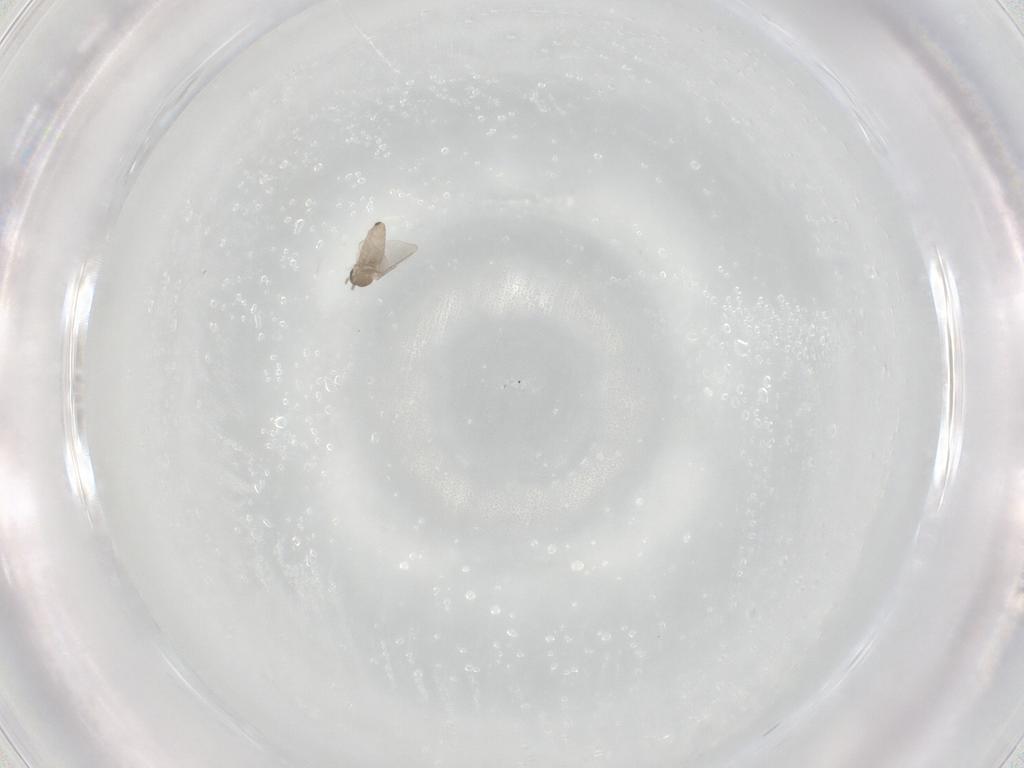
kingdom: Animalia
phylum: Arthropoda
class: Insecta
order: Diptera
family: Cecidomyiidae
